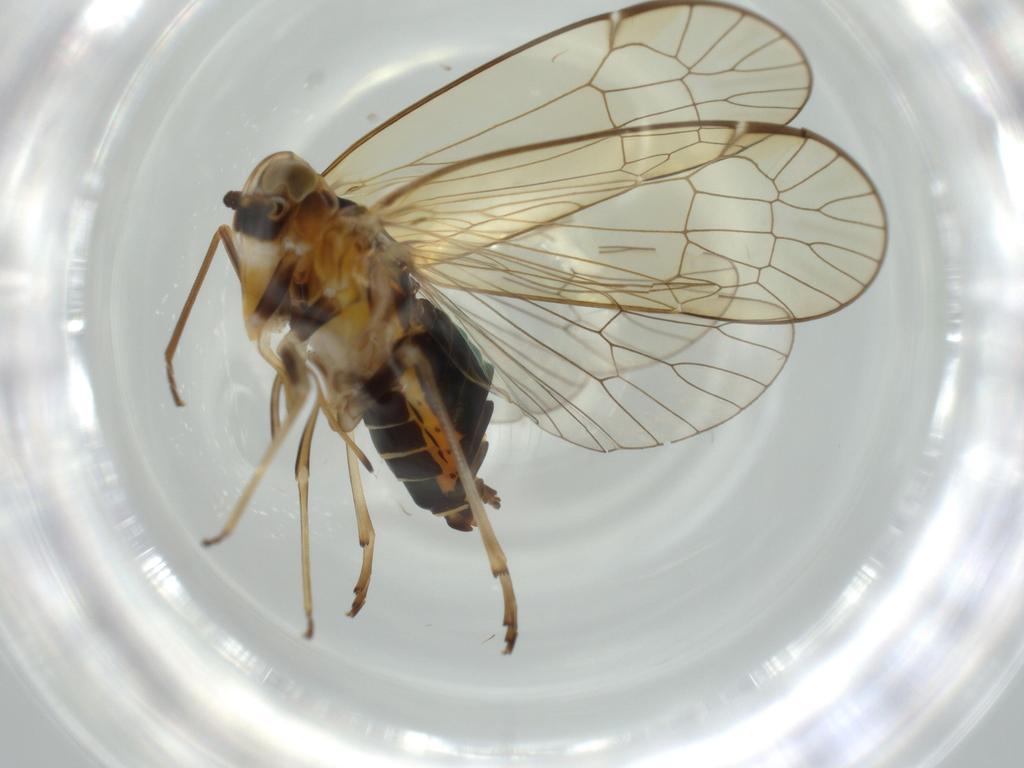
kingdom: Animalia
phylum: Arthropoda
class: Insecta
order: Hemiptera
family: Kinnaridae
